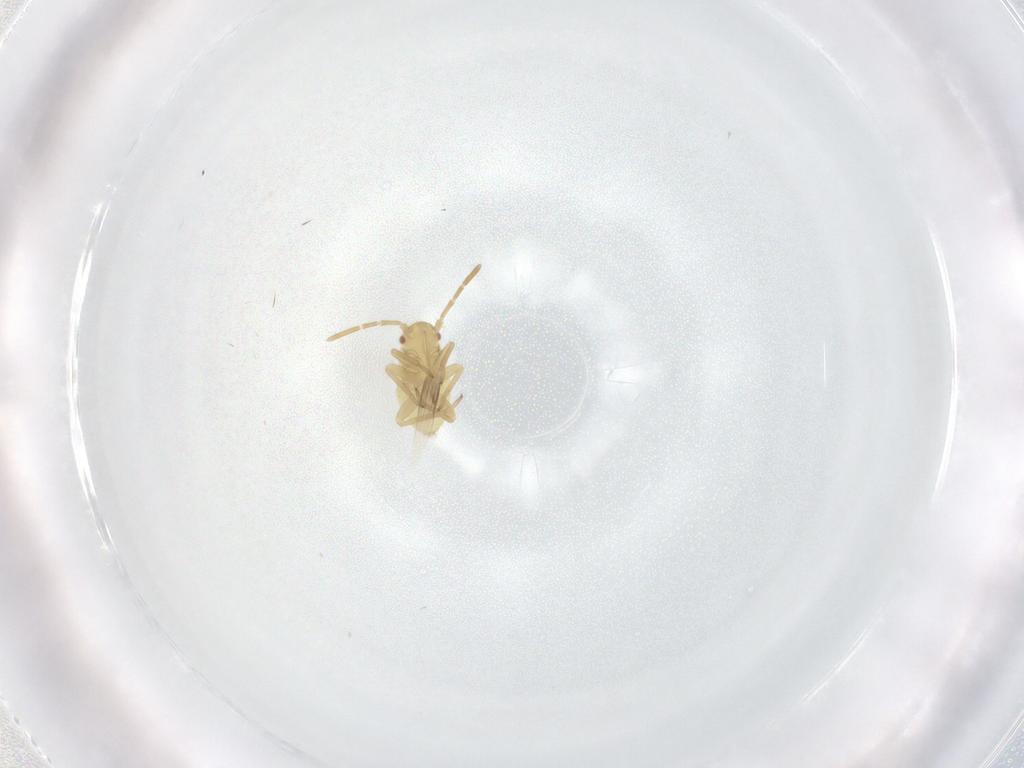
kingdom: Animalia
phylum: Arthropoda
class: Insecta
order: Hemiptera
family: Miridae
